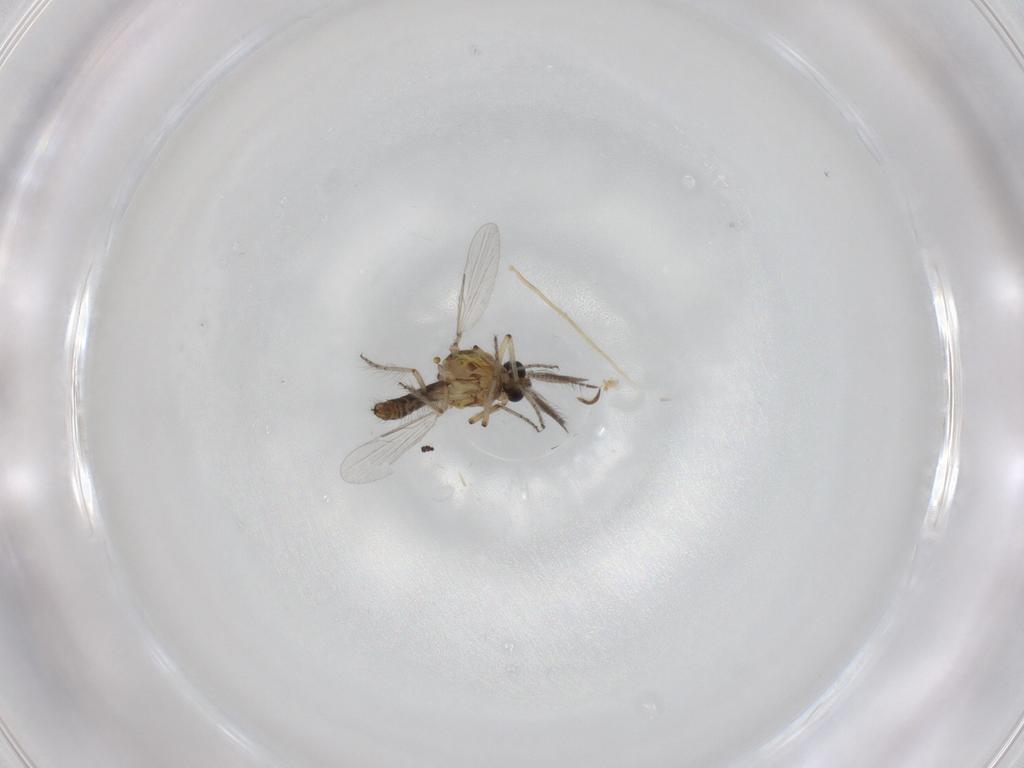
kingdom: Animalia
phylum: Arthropoda
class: Insecta
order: Diptera
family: Ceratopogonidae
